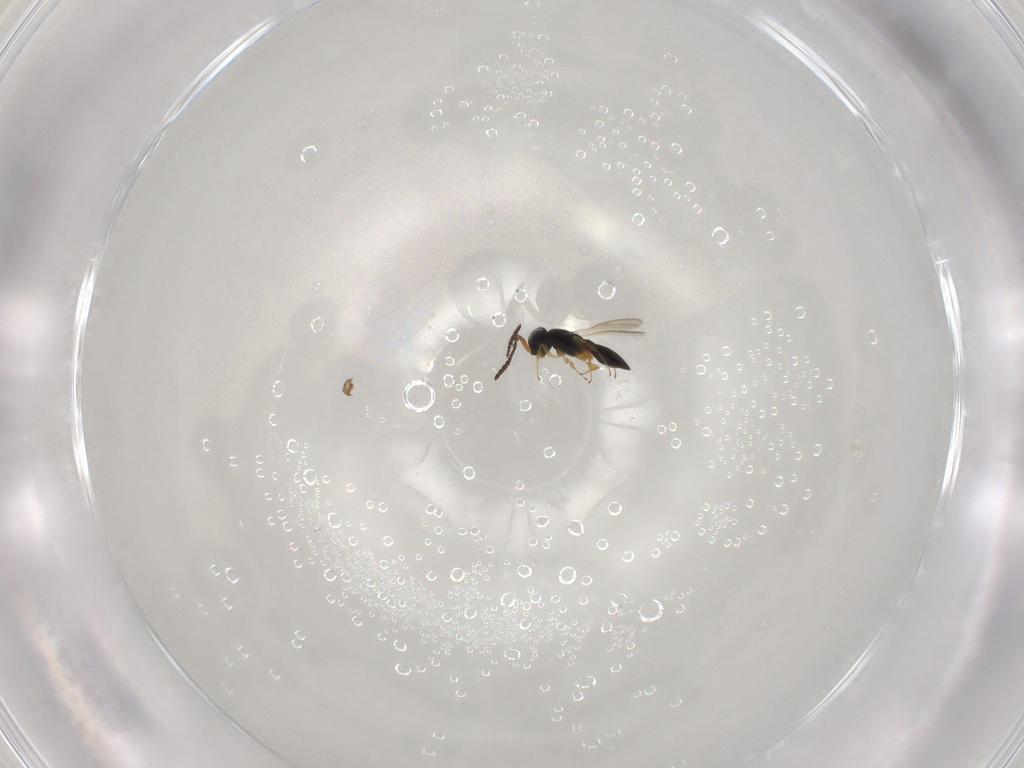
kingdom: Animalia
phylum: Arthropoda
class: Insecta
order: Hymenoptera
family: Scelionidae
